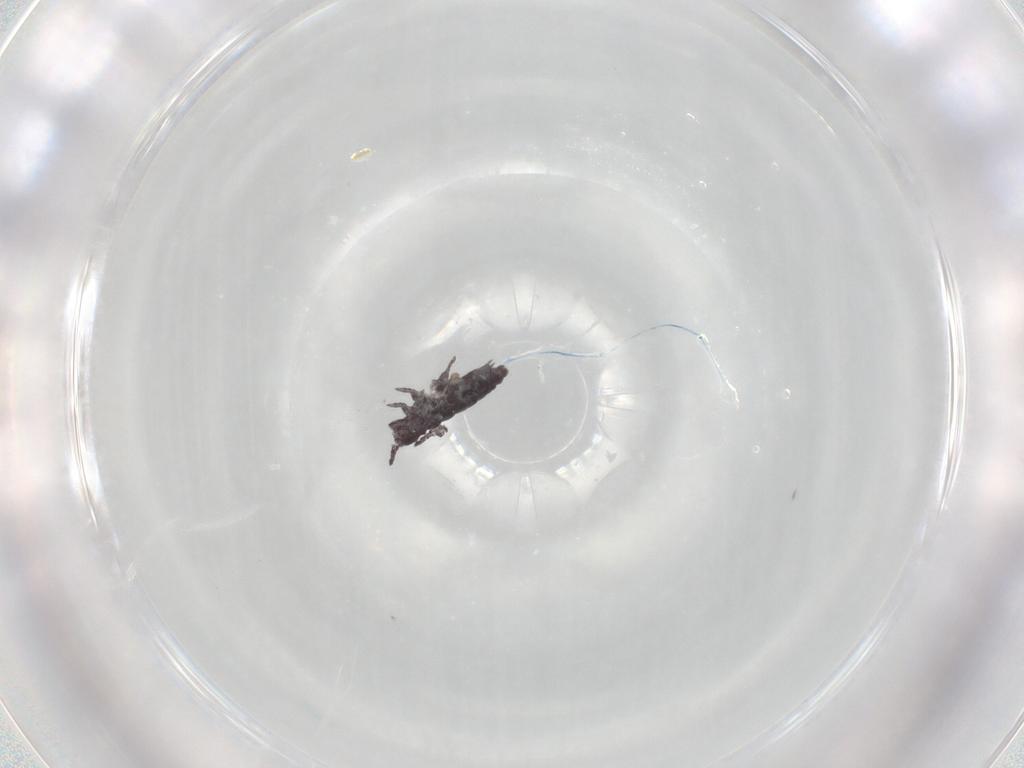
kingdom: Animalia
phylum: Arthropoda
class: Collembola
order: Poduromorpha
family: Hypogastruridae
